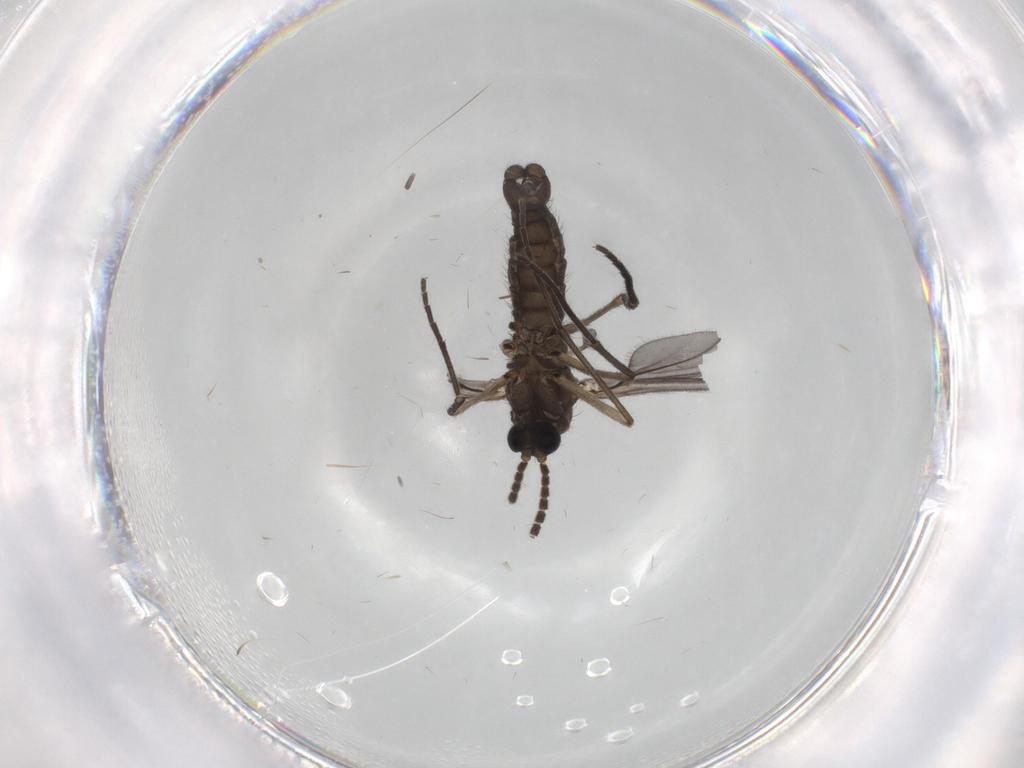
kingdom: Animalia
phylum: Arthropoda
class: Insecta
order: Diptera
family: Sciaridae
